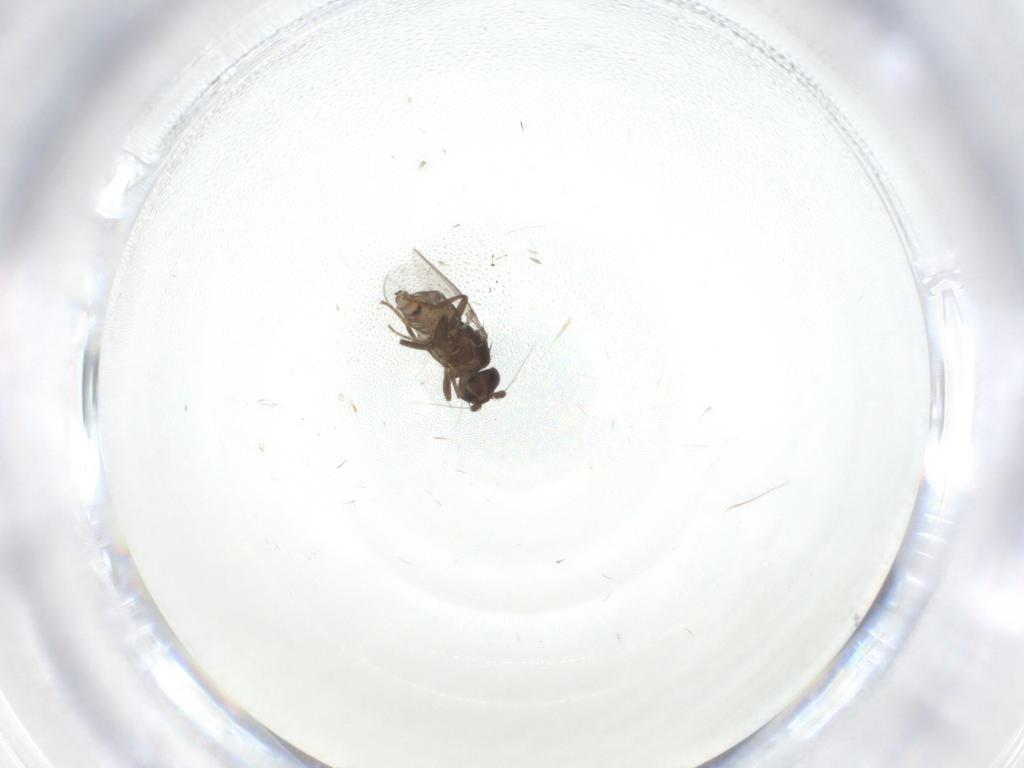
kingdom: Animalia
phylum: Arthropoda
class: Insecta
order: Diptera
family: Sphaeroceridae
